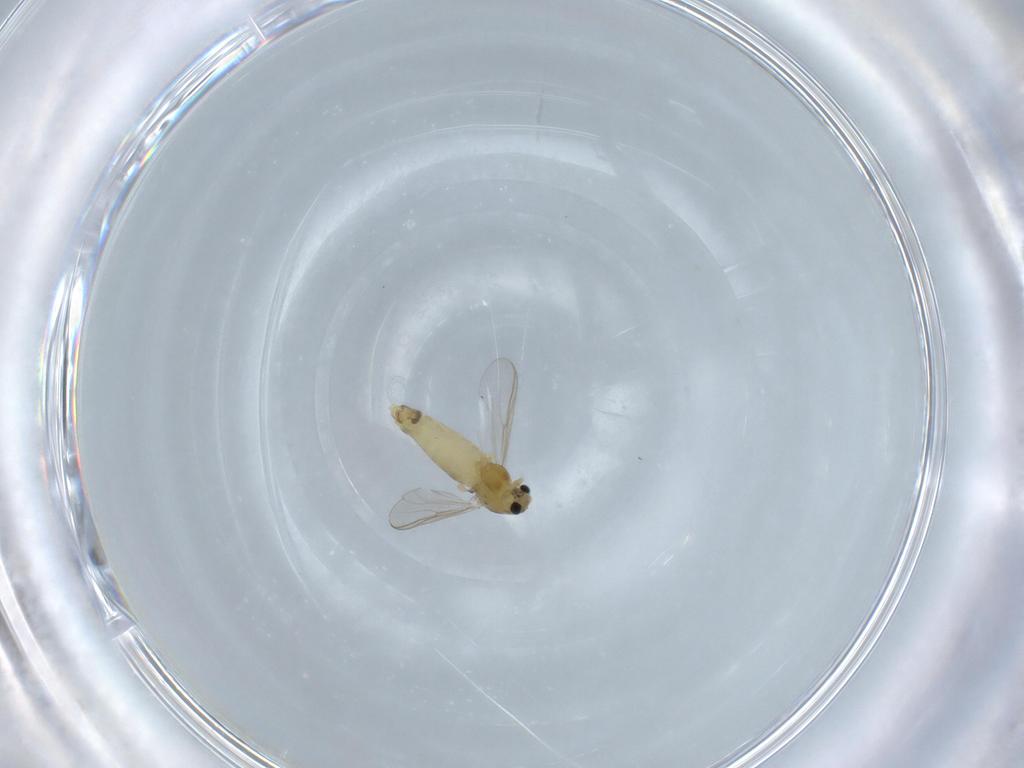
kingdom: Animalia
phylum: Arthropoda
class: Insecta
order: Diptera
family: Chironomidae
